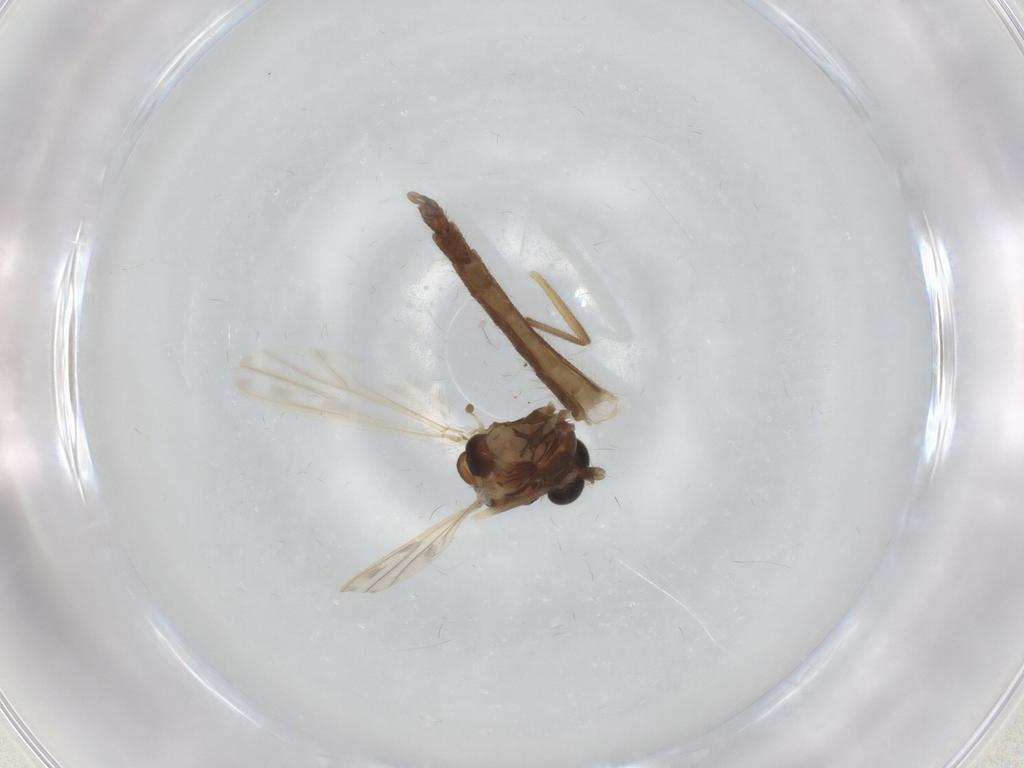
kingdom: Animalia
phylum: Arthropoda
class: Insecta
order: Diptera
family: Chironomidae
